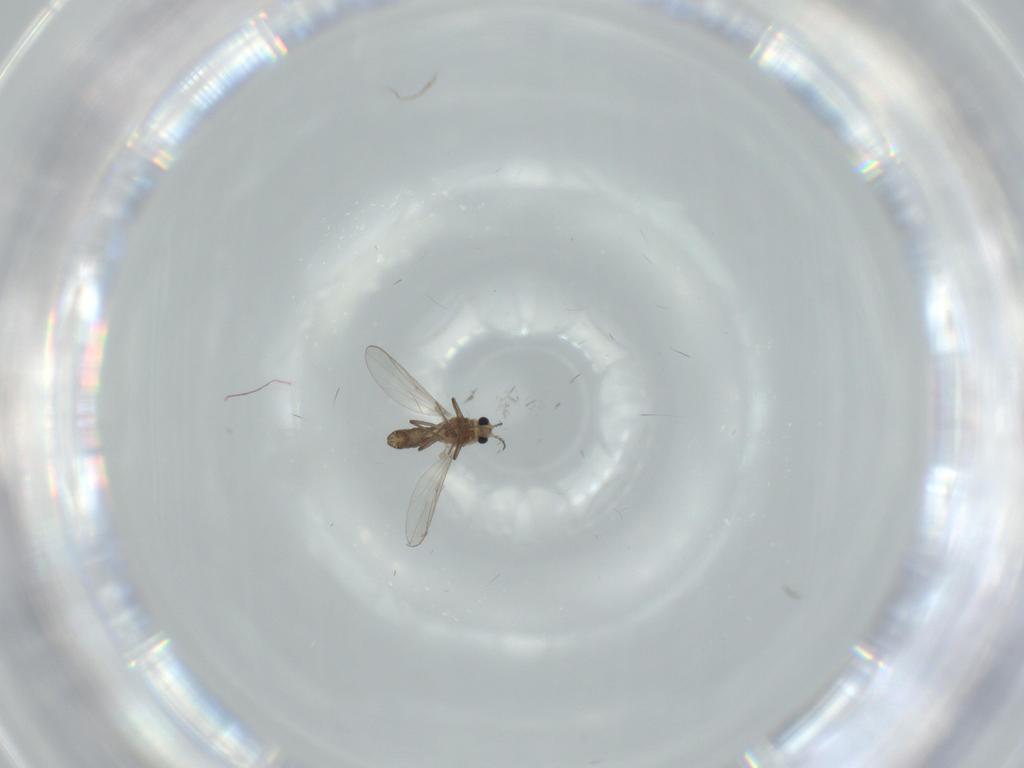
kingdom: Animalia
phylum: Arthropoda
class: Insecta
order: Diptera
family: Chironomidae
